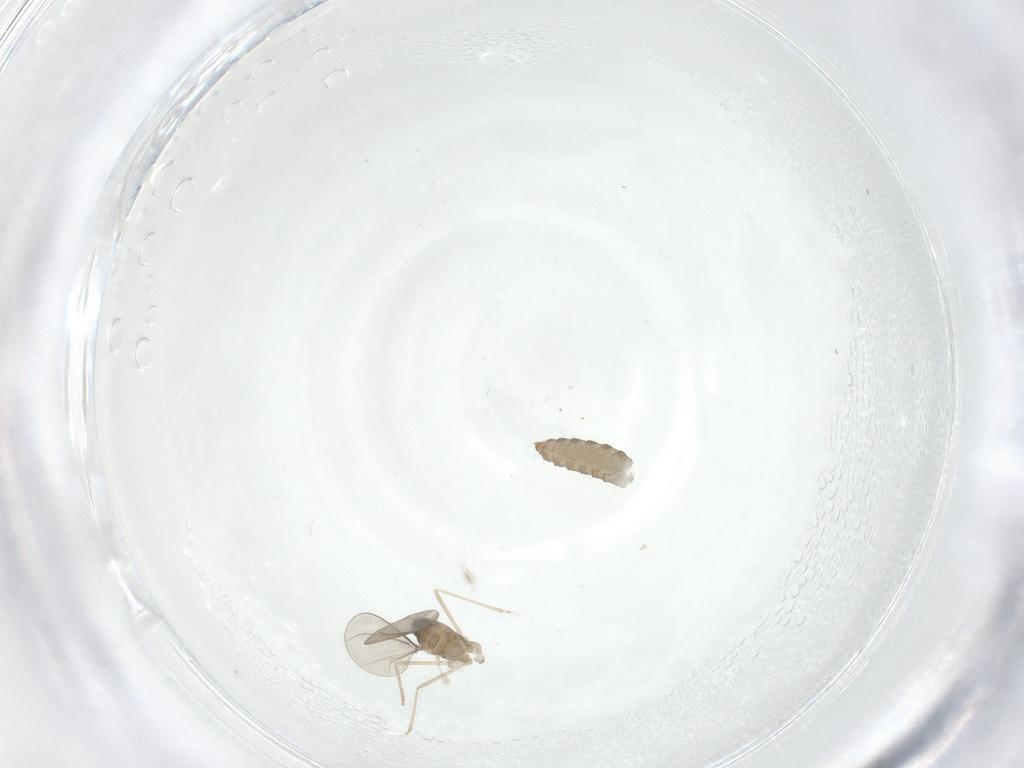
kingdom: Animalia
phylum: Arthropoda
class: Insecta
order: Diptera
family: Cecidomyiidae
